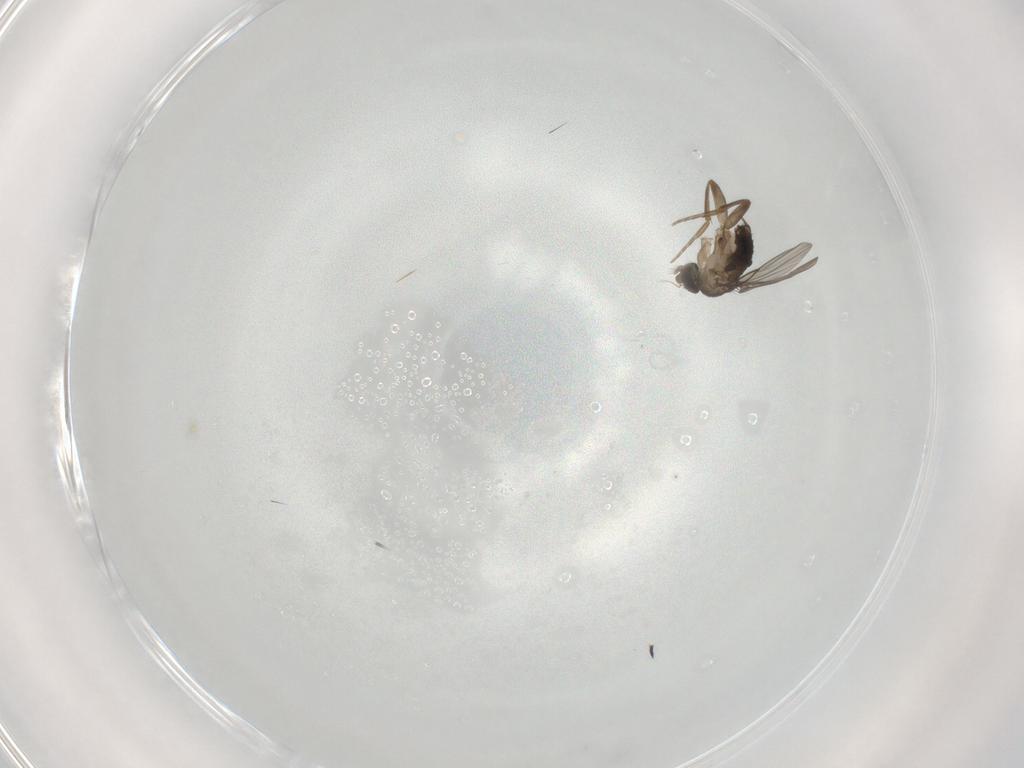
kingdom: Animalia
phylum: Arthropoda
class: Insecta
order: Diptera
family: Phoridae
